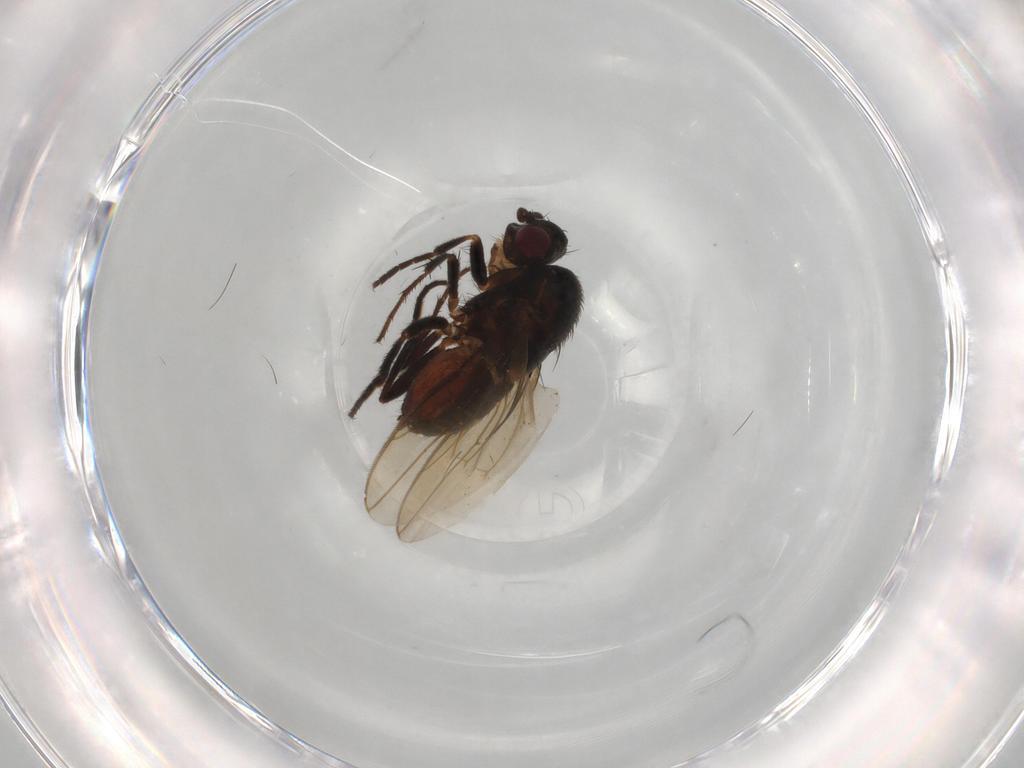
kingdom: Animalia
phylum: Arthropoda
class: Insecta
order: Diptera
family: Sphaeroceridae
